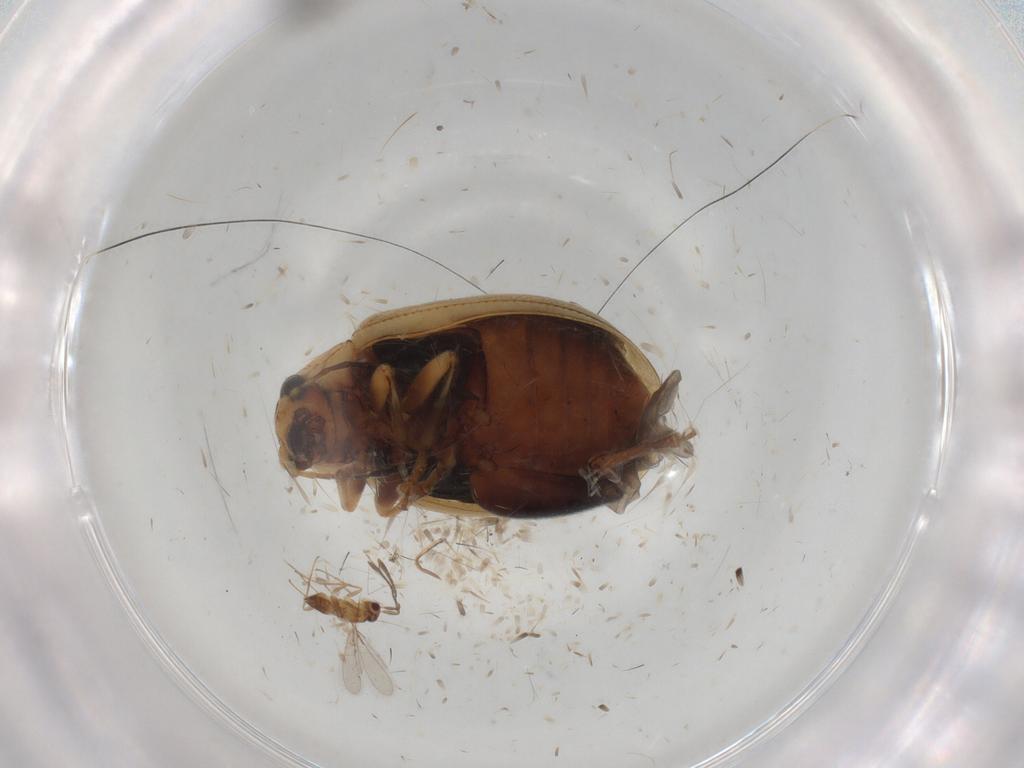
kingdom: Animalia
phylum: Arthropoda
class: Insecta
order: Coleoptera
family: Chrysomelidae
